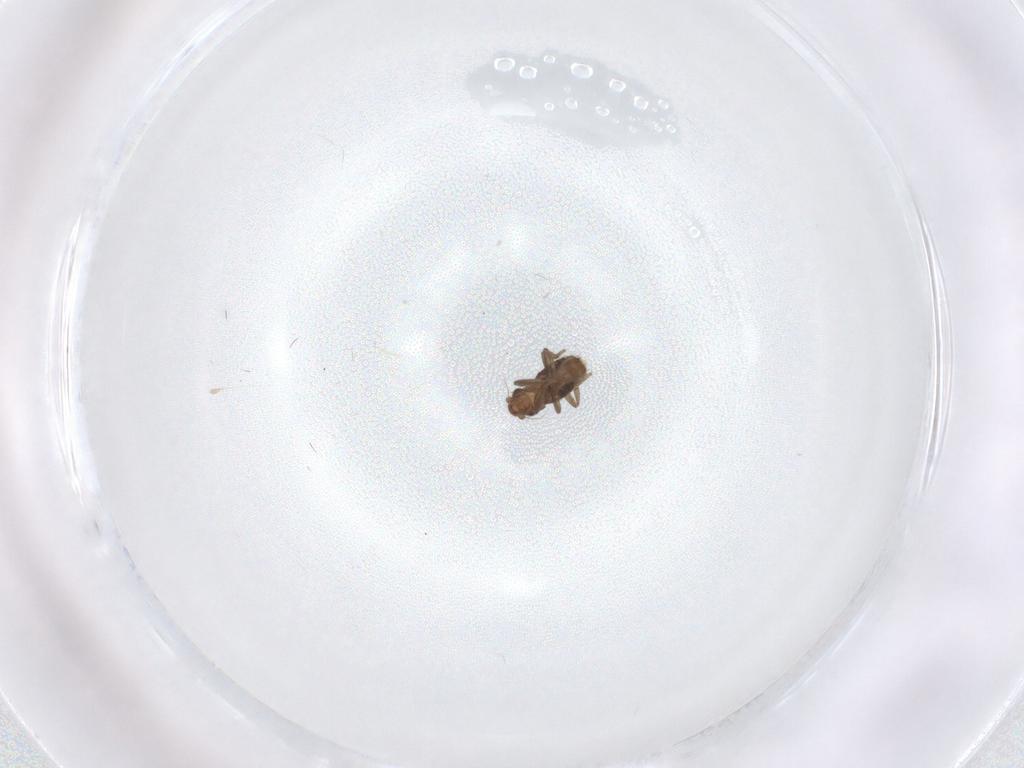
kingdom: Animalia
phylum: Arthropoda
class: Insecta
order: Diptera
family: Phoridae
